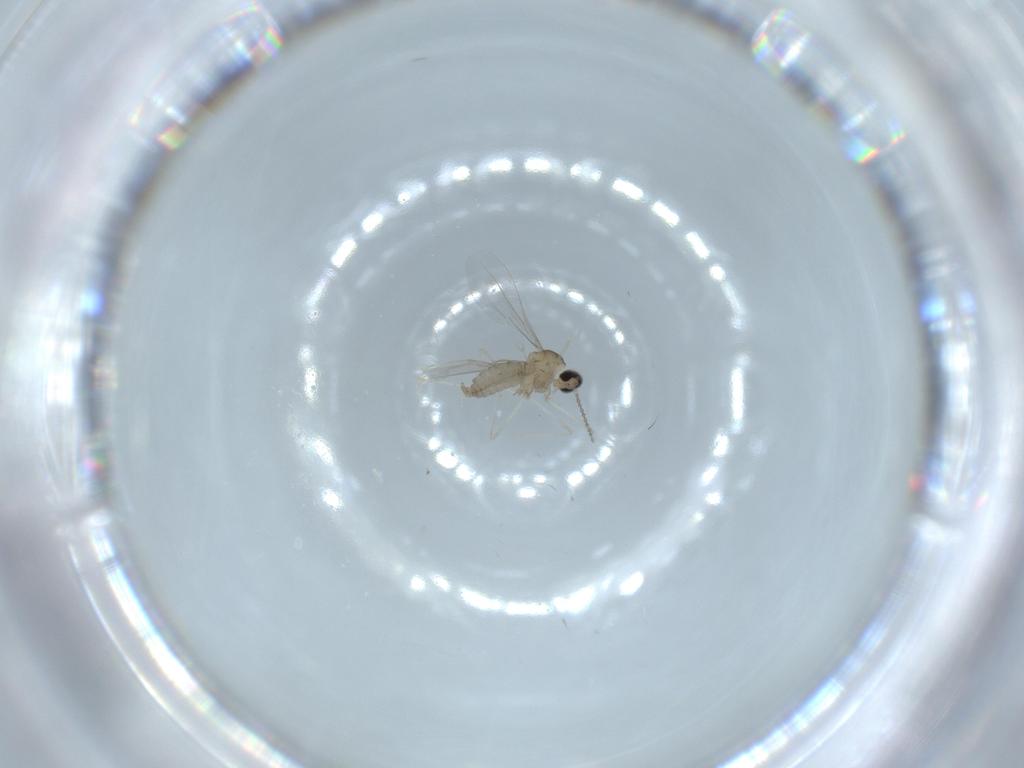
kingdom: Animalia
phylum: Arthropoda
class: Insecta
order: Diptera
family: Cecidomyiidae
